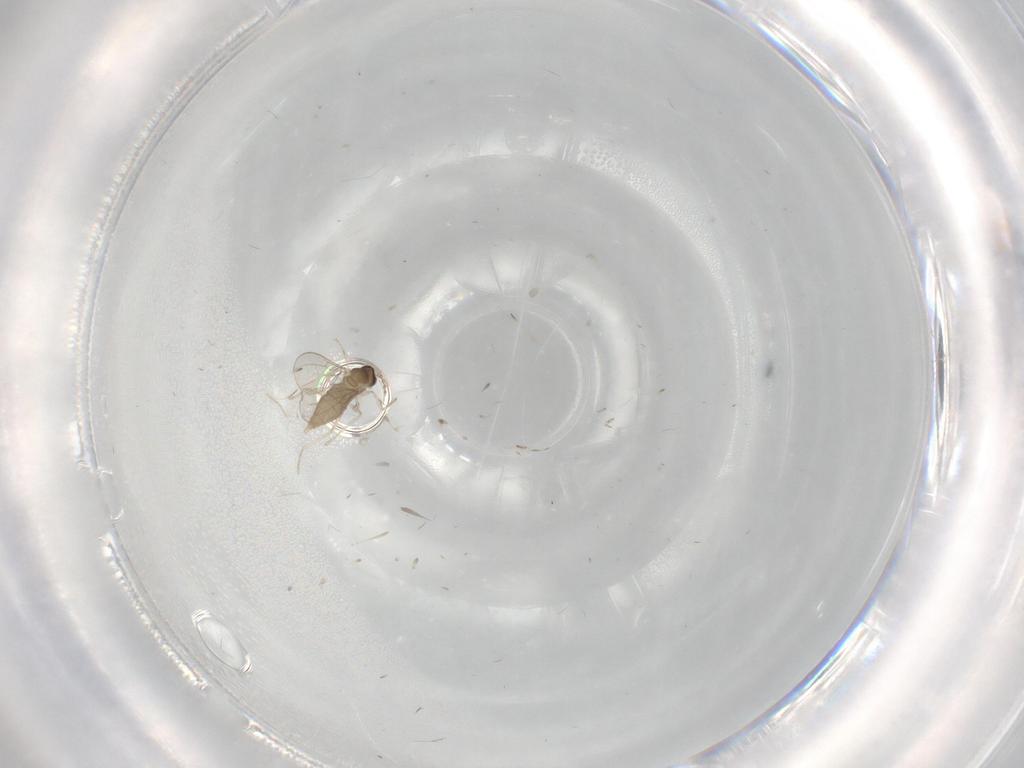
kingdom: Animalia
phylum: Arthropoda
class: Insecta
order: Diptera
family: Cecidomyiidae
